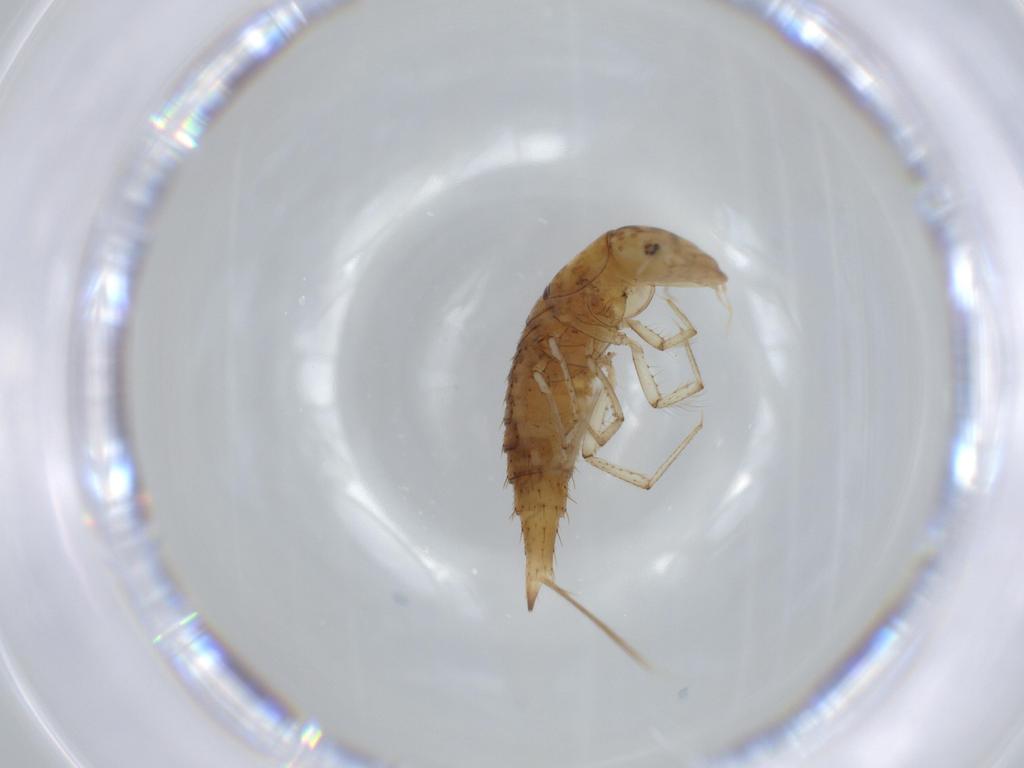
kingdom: Animalia
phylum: Arthropoda
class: Insecta
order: Coleoptera
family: Dytiscidae
